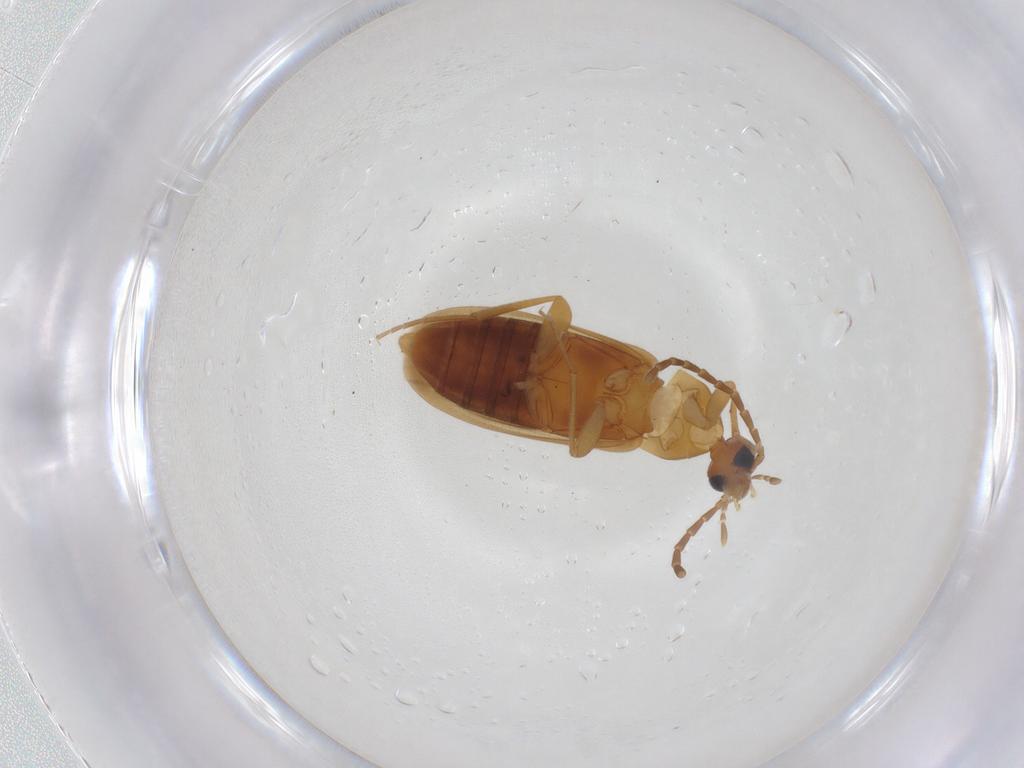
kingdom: Animalia
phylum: Arthropoda
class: Insecta
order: Coleoptera
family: Scraptiidae
